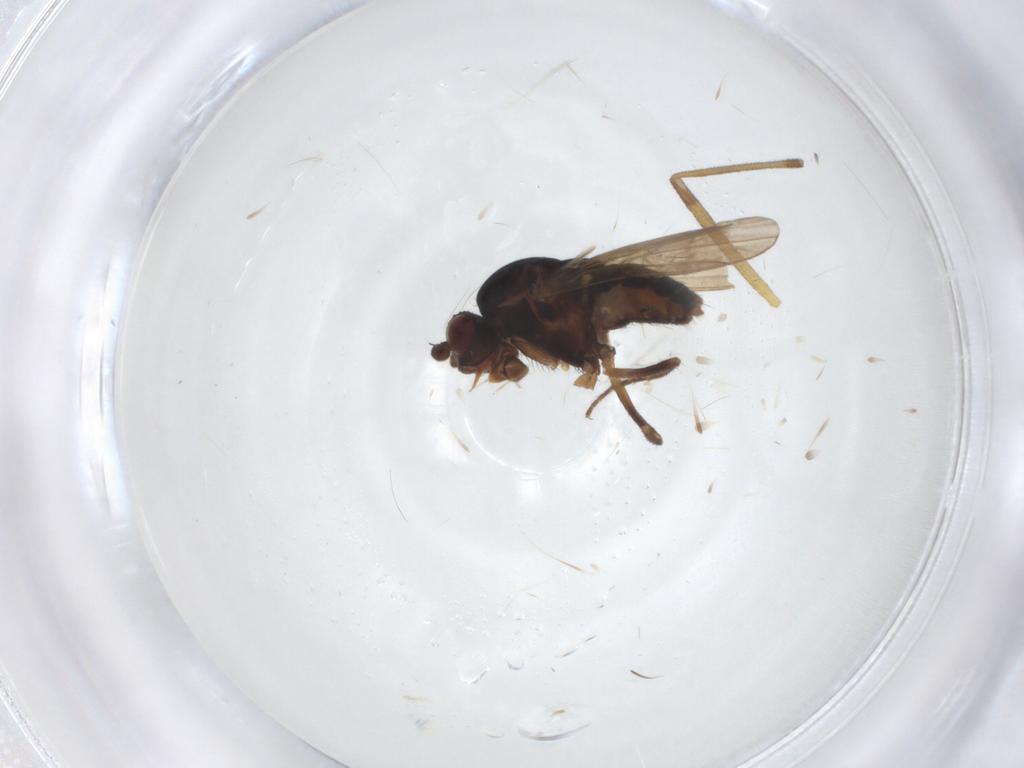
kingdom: Animalia
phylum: Arthropoda
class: Insecta
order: Diptera
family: Sphaeroceridae
